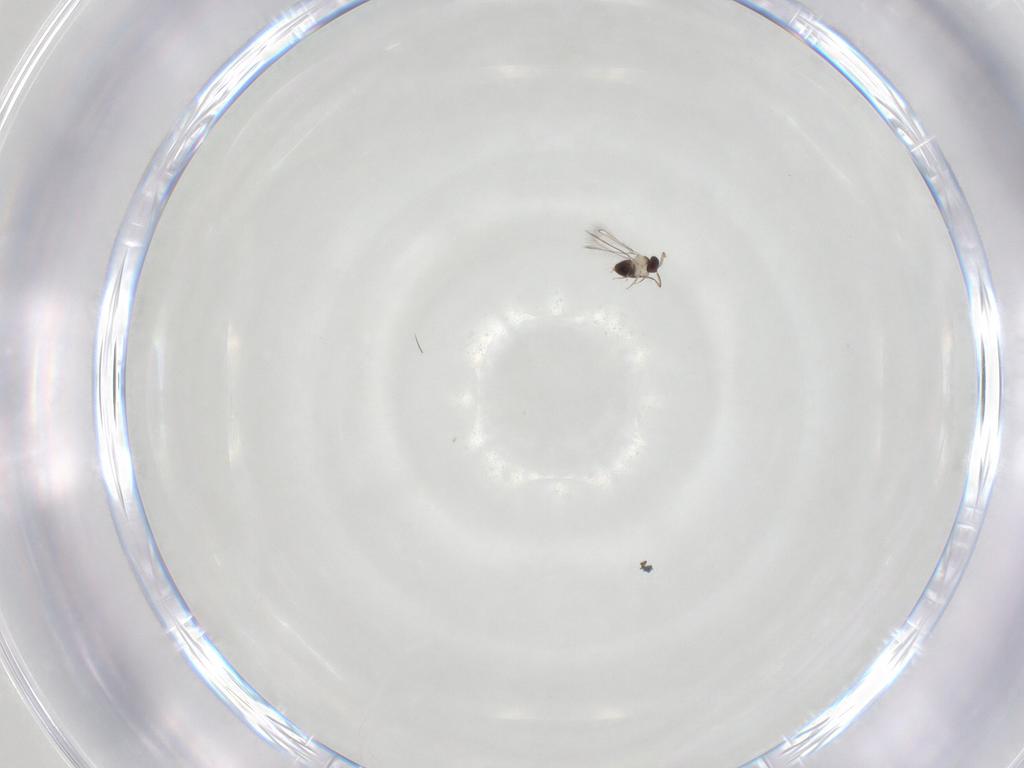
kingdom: Animalia
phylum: Arthropoda
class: Insecta
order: Hymenoptera
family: Mymaridae
